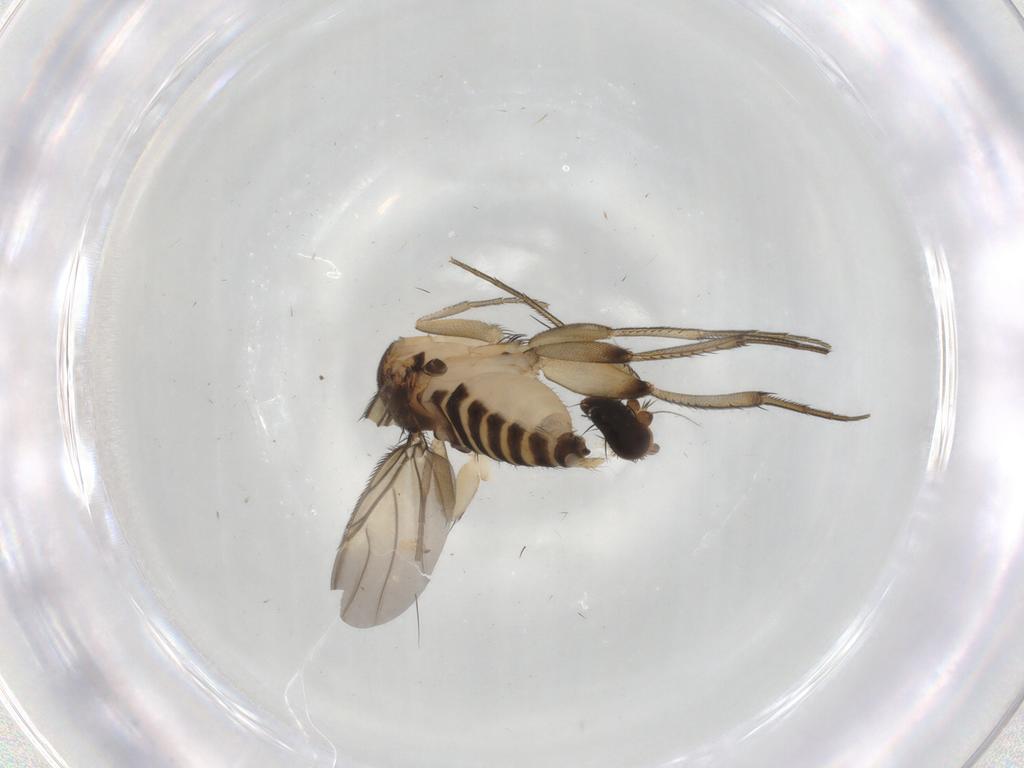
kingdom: Animalia
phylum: Arthropoda
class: Insecta
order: Diptera
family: Phoridae
